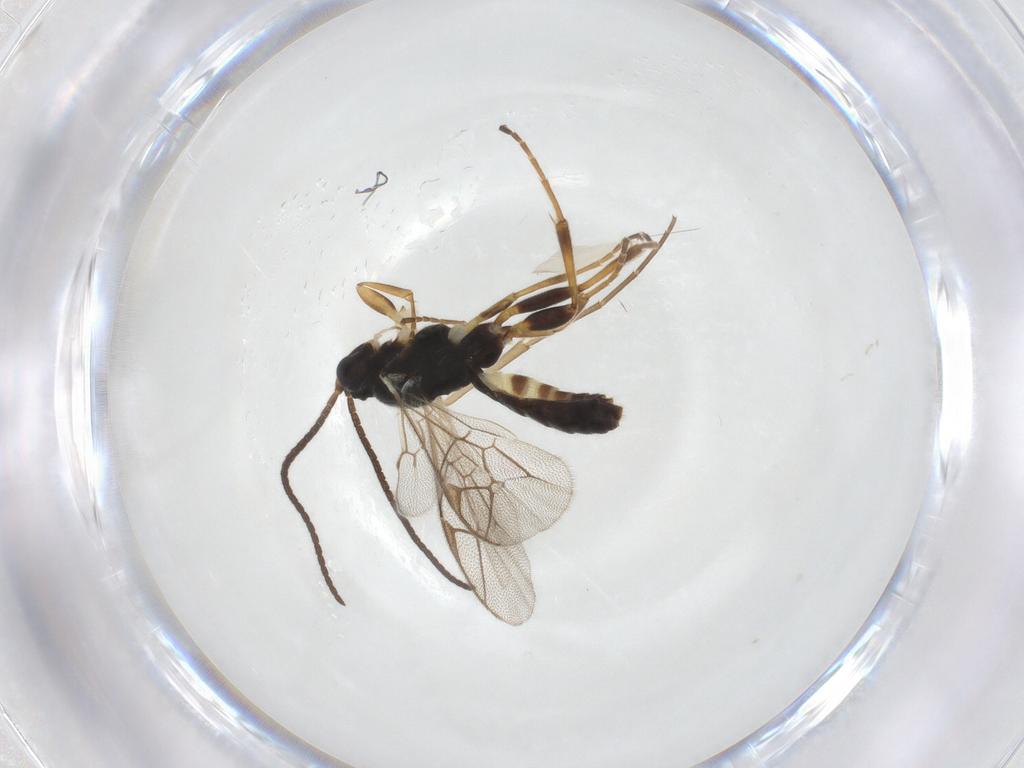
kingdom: Animalia
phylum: Arthropoda
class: Insecta
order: Hymenoptera
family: Ichneumonidae
